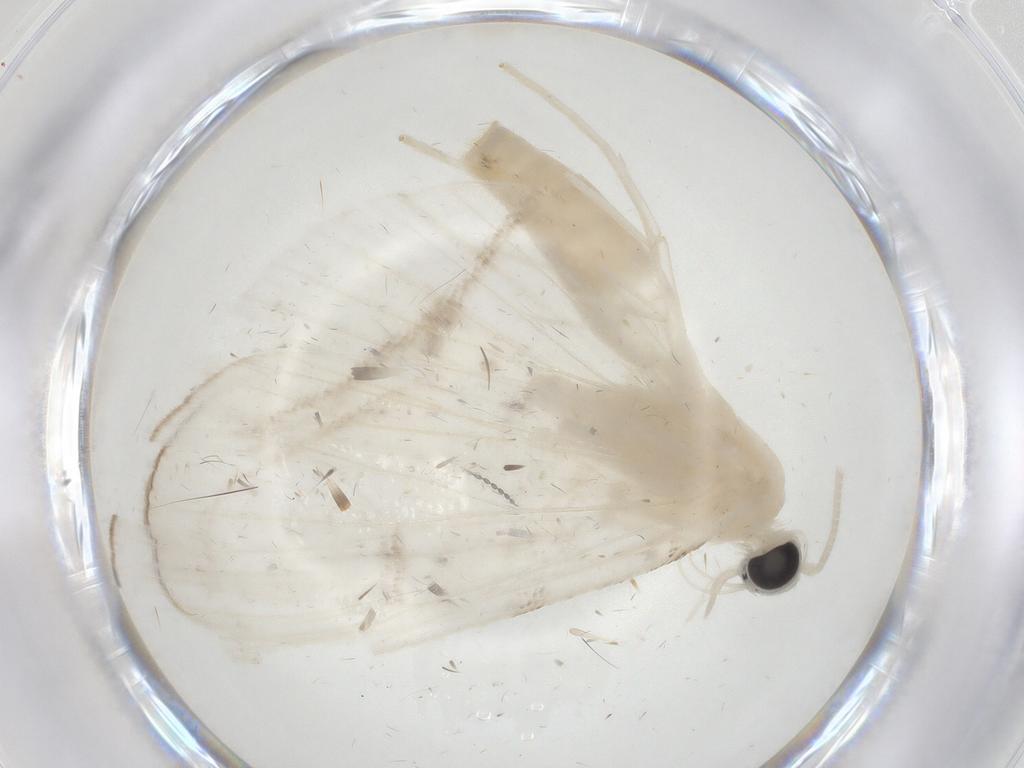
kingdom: Animalia
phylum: Arthropoda
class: Insecta
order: Lepidoptera
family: Crambidae
